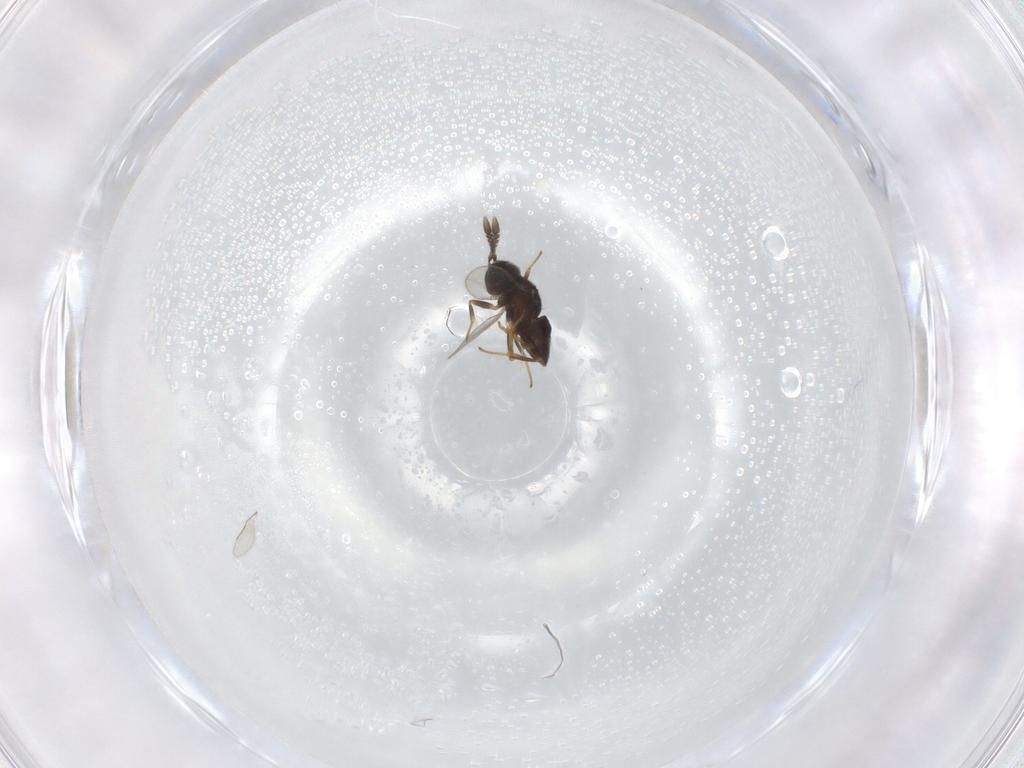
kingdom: Animalia
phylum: Arthropoda
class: Insecta
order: Hymenoptera
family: Encyrtidae
